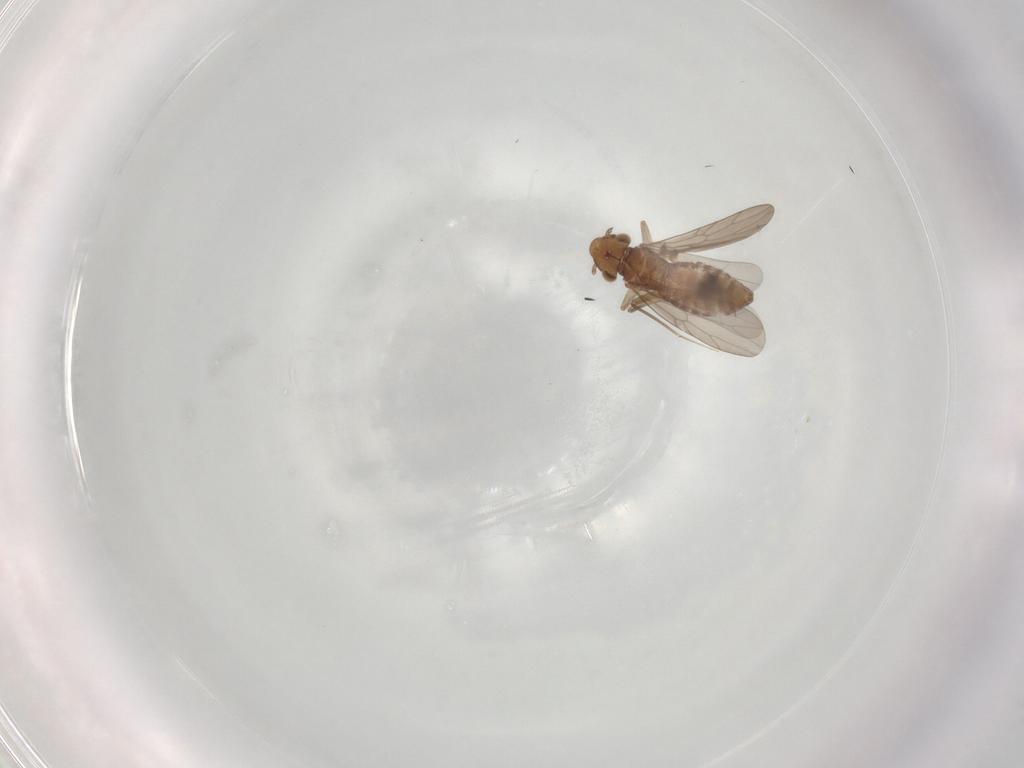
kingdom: Animalia
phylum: Arthropoda
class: Insecta
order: Psocodea
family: Lepidopsocidae
